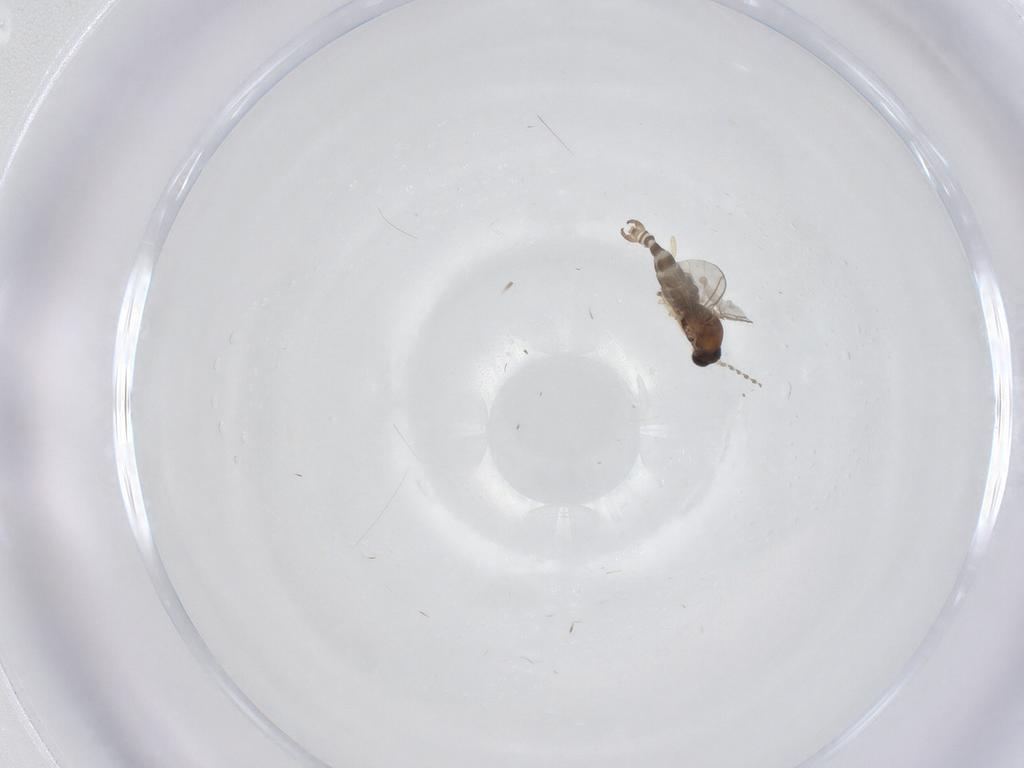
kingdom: Animalia
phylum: Arthropoda
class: Insecta
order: Diptera
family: Sciaridae
